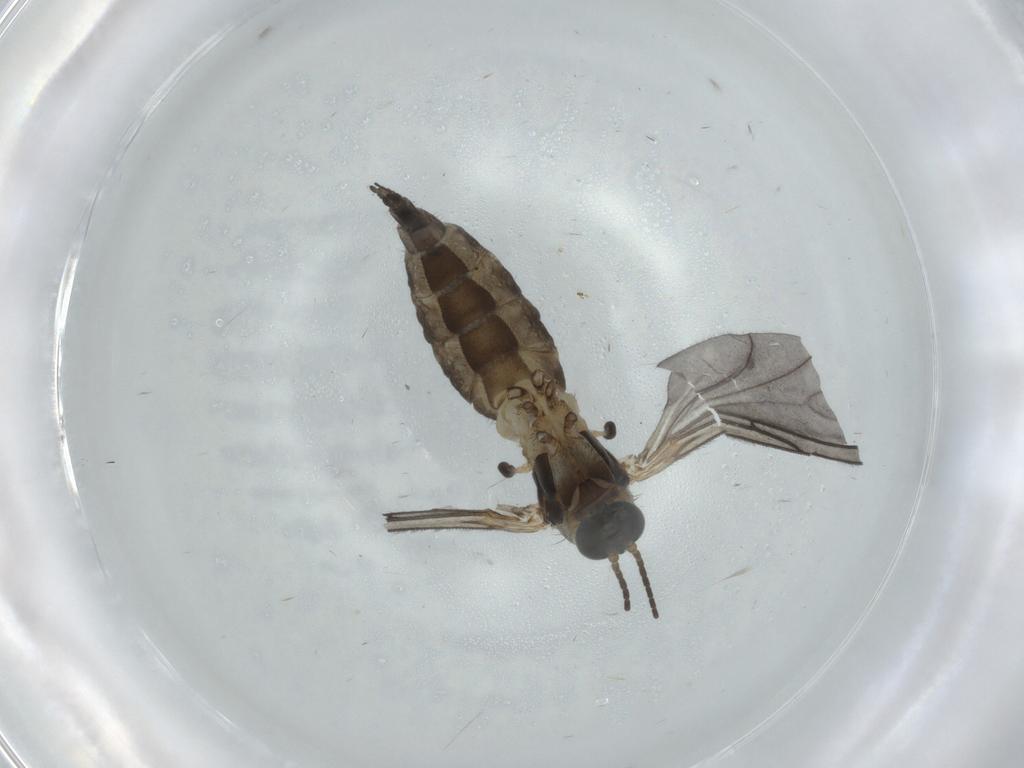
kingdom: Animalia
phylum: Arthropoda
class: Insecta
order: Diptera
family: Sciaridae
